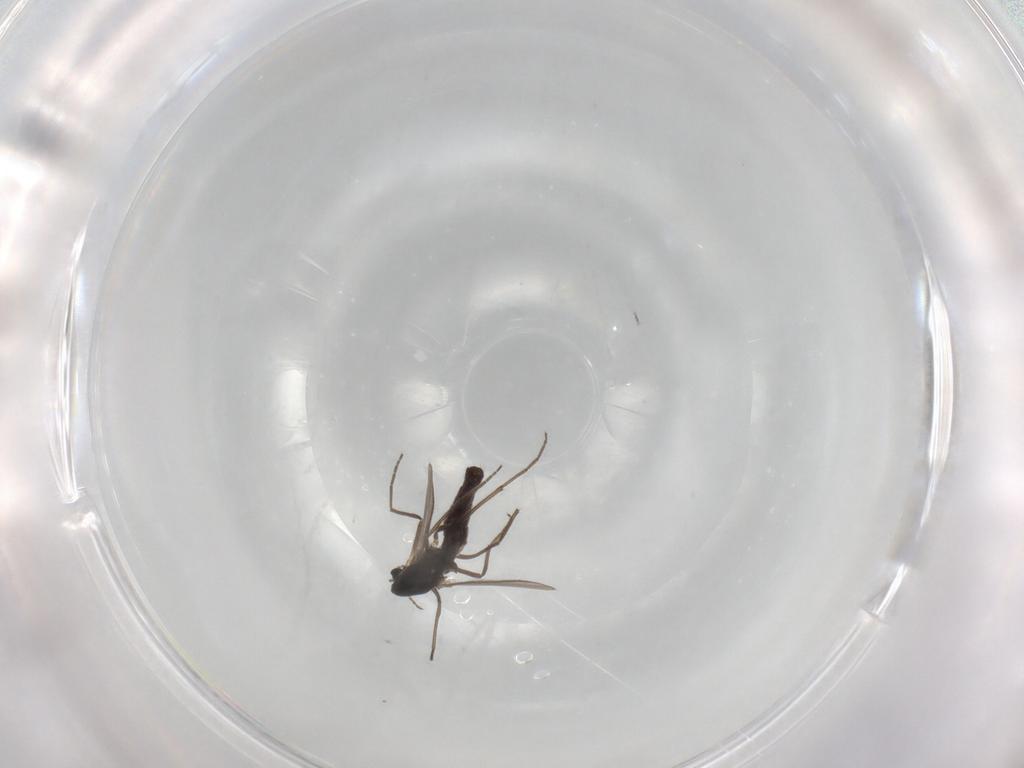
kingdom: Animalia
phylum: Arthropoda
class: Insecta
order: Diptera
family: Chironomidae
